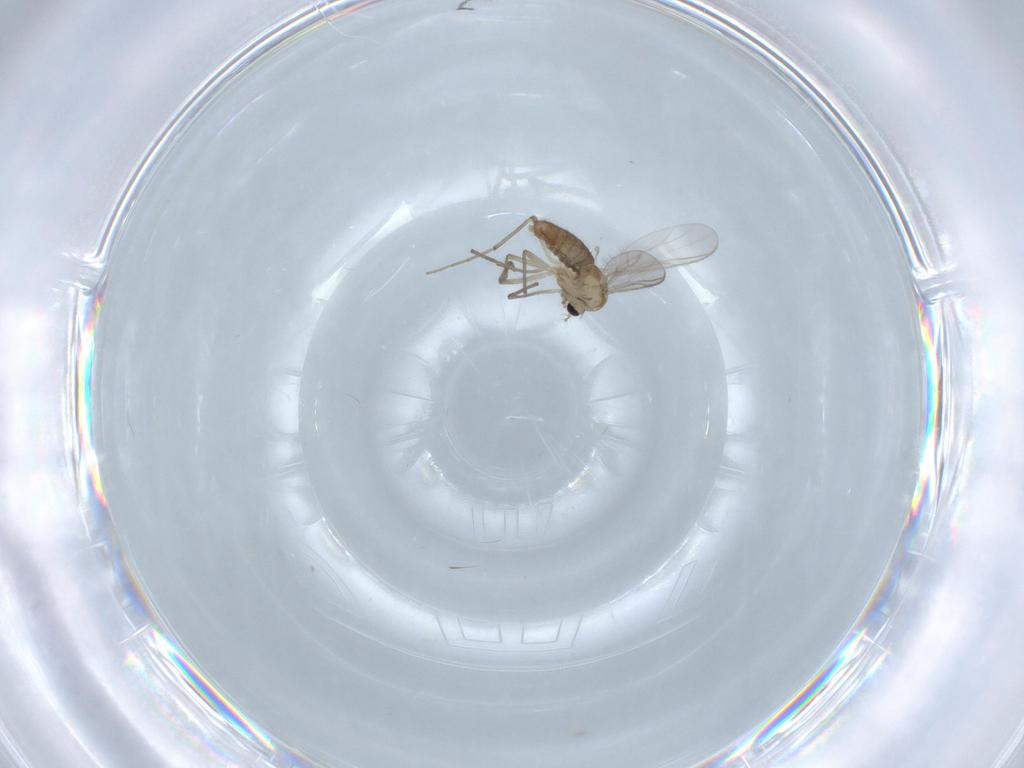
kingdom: Animalia
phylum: Arthropoda
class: Insecta
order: Diptera
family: Chironomidae
